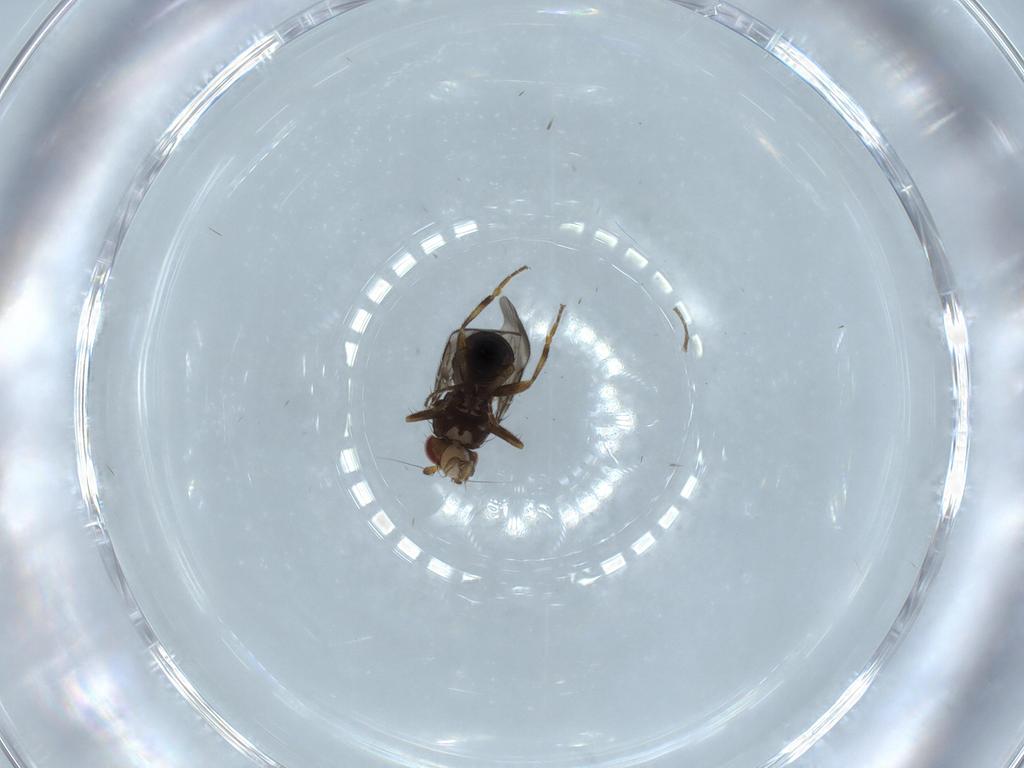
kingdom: Animalia
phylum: Arthropoda
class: Insecta
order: Diptera
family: Sphaeroceridae
